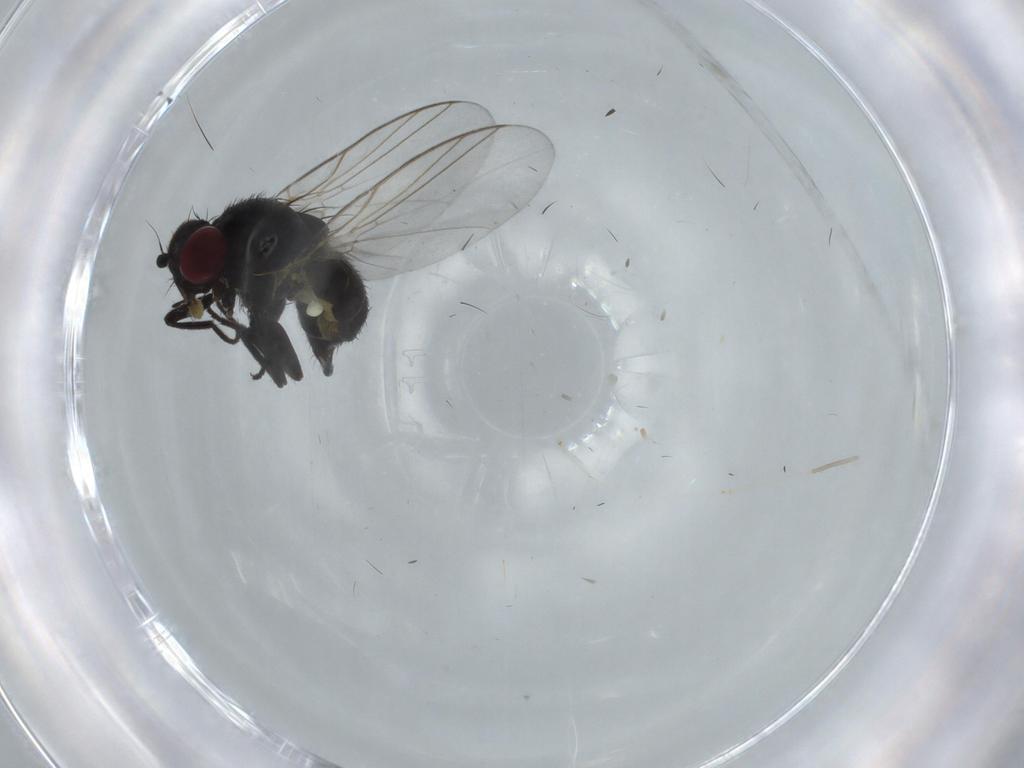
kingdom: Animalia
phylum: Arthropoda
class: Insecta
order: Diptera
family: Agromyzidae
